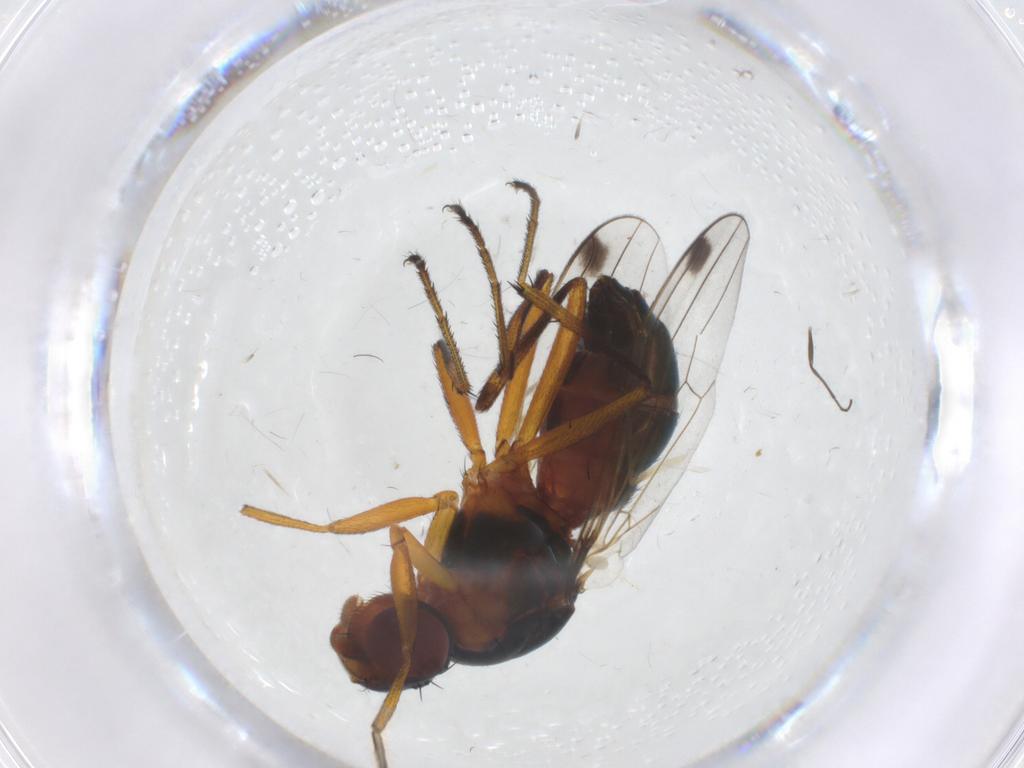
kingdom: Animalia
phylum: Arthropoda
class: Insecta
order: Diptera
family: Sepsidae
